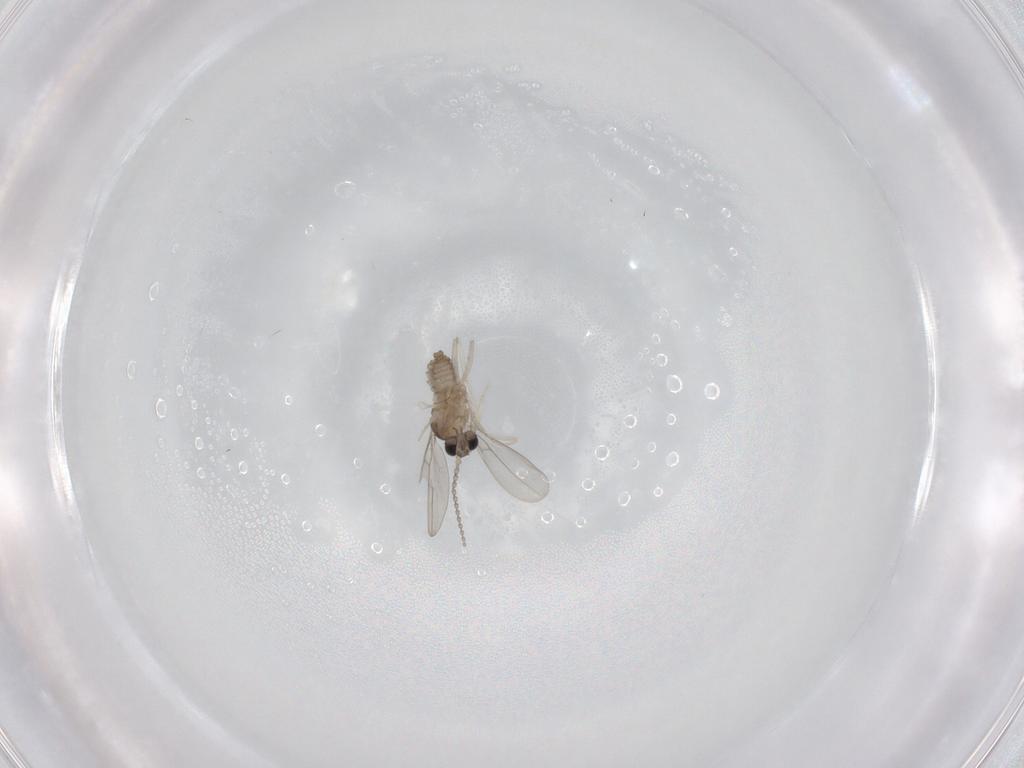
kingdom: Animalia
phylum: Arthropoda
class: Insecta
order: Diptera
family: Cecidomyiidae
